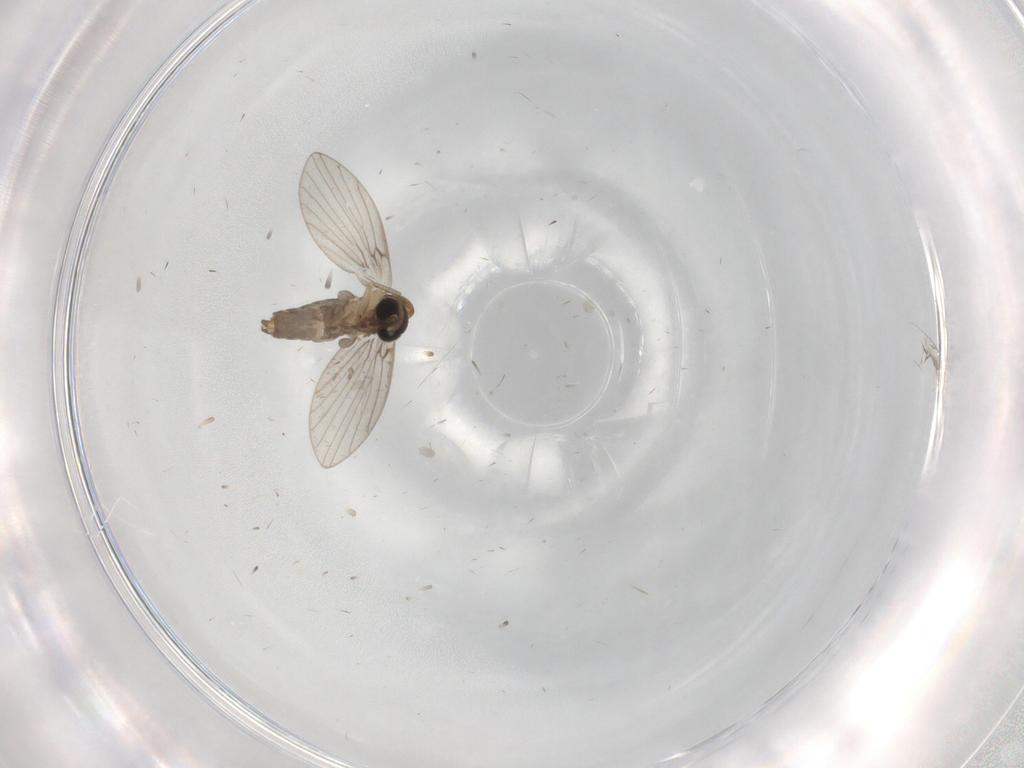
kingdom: Animalia
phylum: Arthropoda
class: Insecta
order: Diptera
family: Psychodidae
